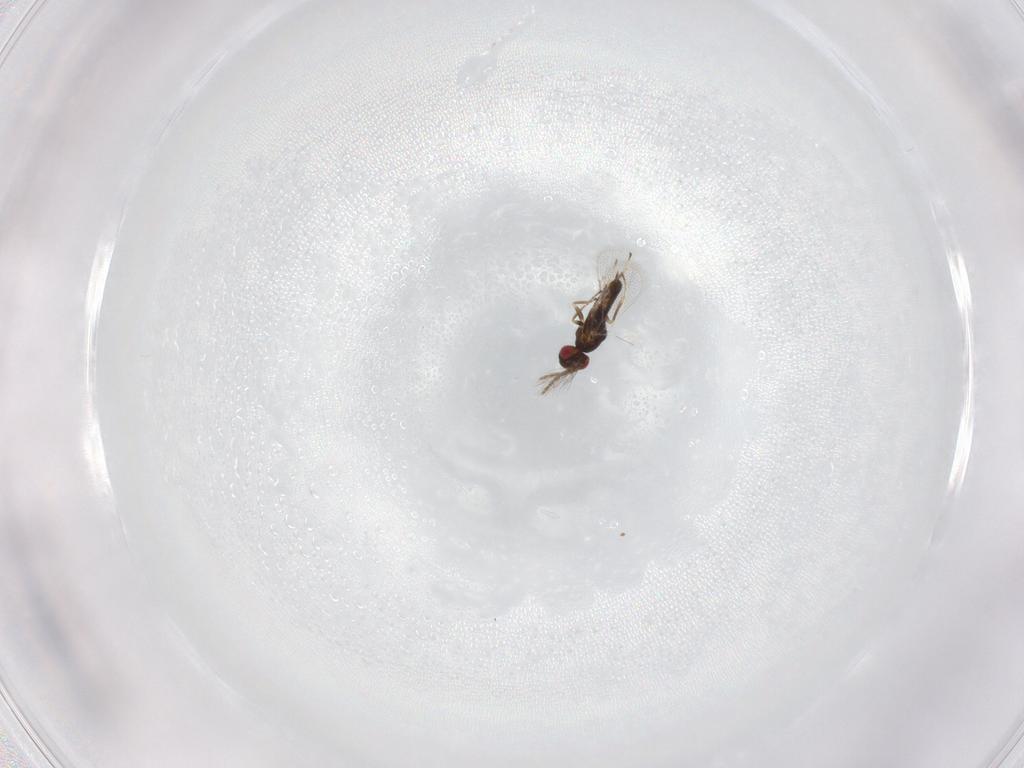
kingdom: Animalia
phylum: Arthropoda
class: Insecta
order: Hymenoptera
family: Eulophidae
